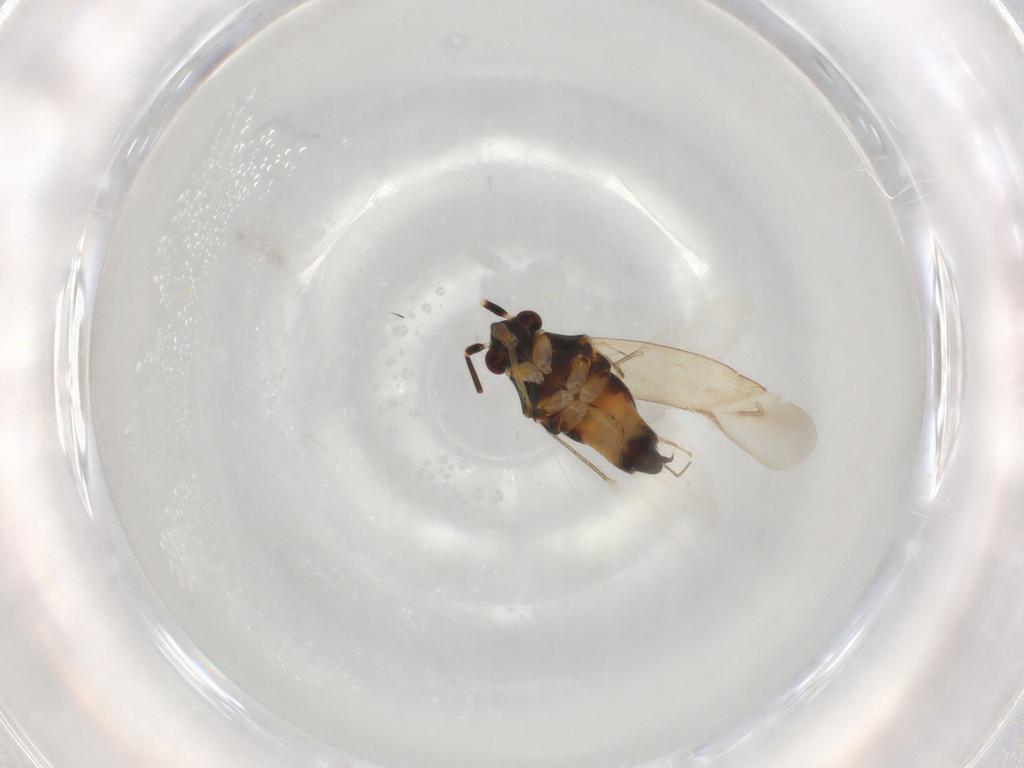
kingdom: Animalia
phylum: Arthropoda
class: Insecta
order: Hemiptera
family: Miridae
